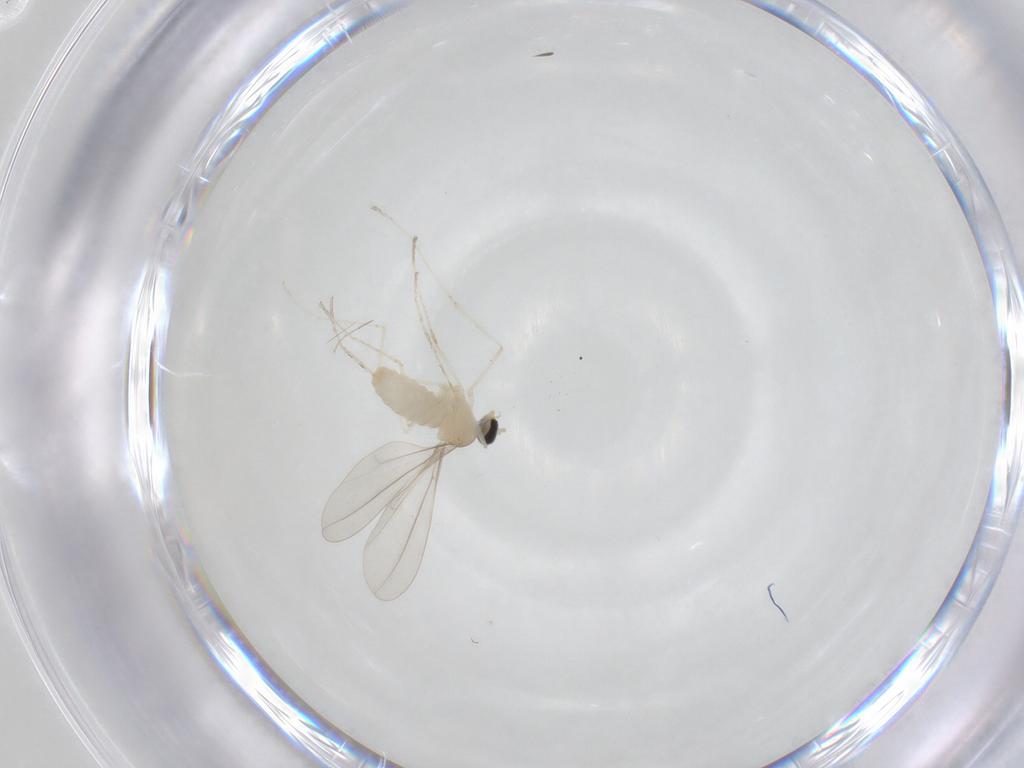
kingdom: Animalia
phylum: Arthropoda
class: Insecta
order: Diptera
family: Chironomidae
